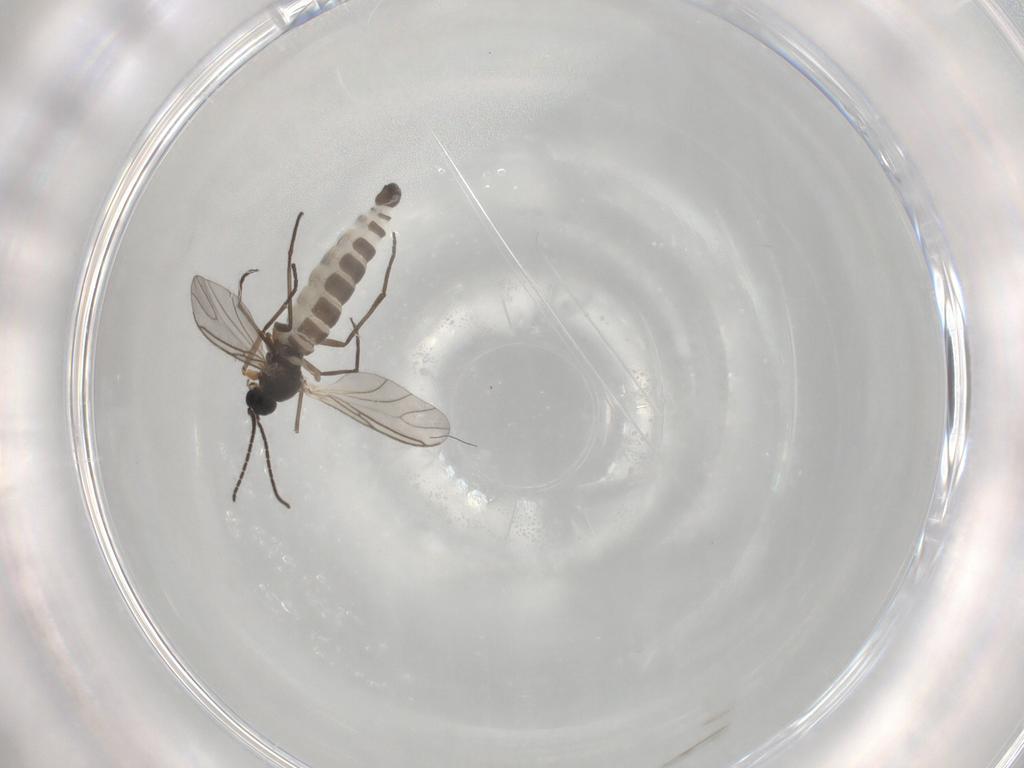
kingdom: Animalia
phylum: Arthropoda
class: Insecta
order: Diptera
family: Sciaridae
